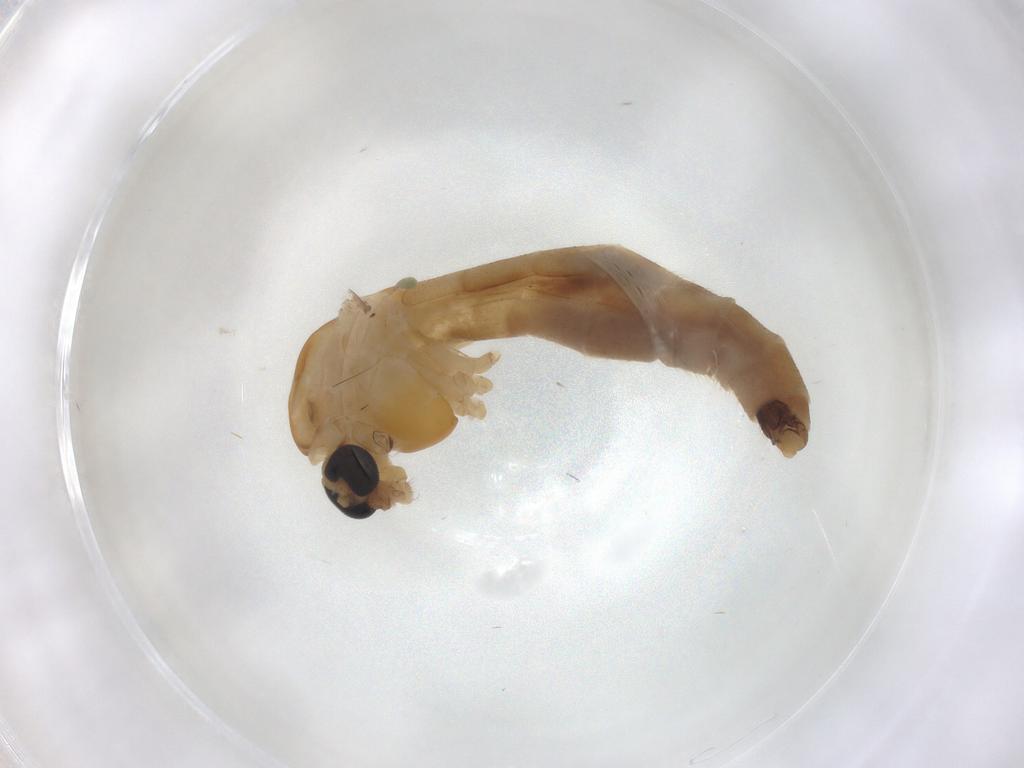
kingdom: Animalia
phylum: Arthropoda
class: Insecta
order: Diptera
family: Chironomidae
